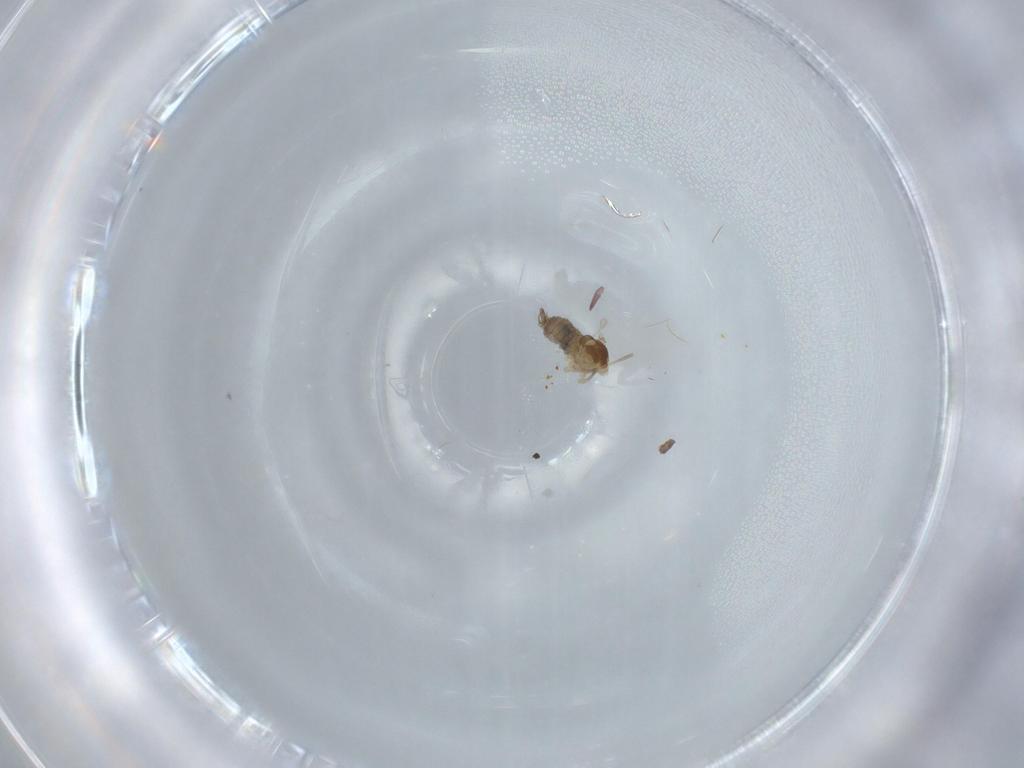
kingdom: Animalia
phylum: Arthropoda
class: Insecta
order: Diptera
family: Cecidomyiidae
